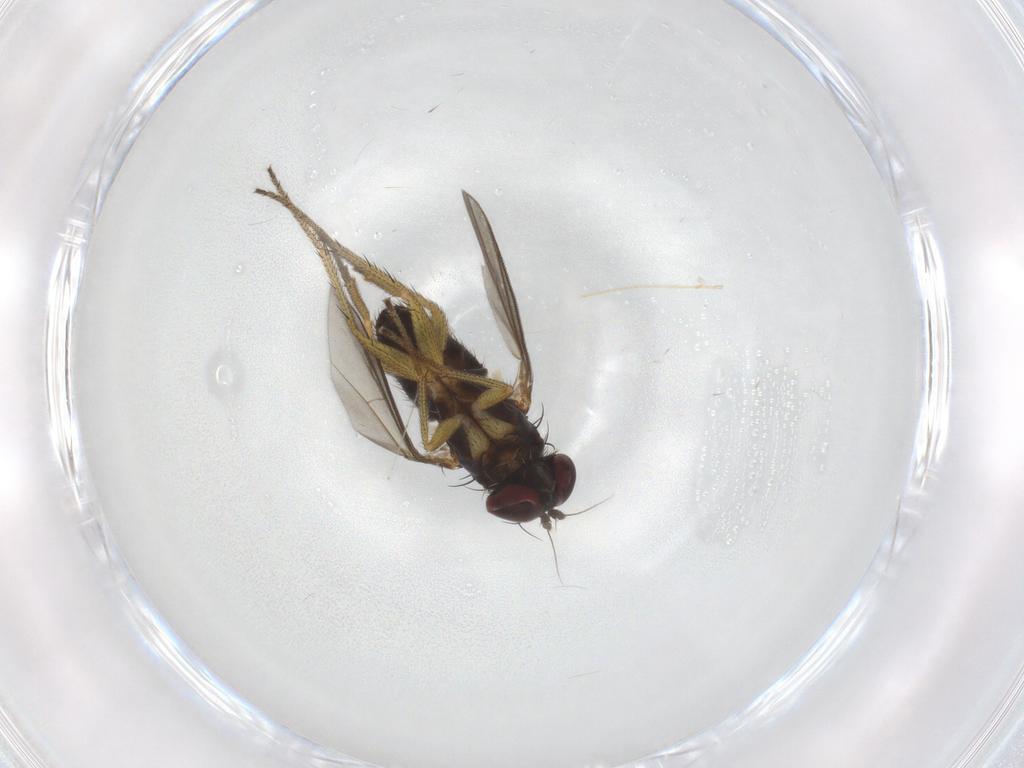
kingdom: Animalia
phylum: Arthropoda
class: Insecta
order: Diptera
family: Dolichopodidae
